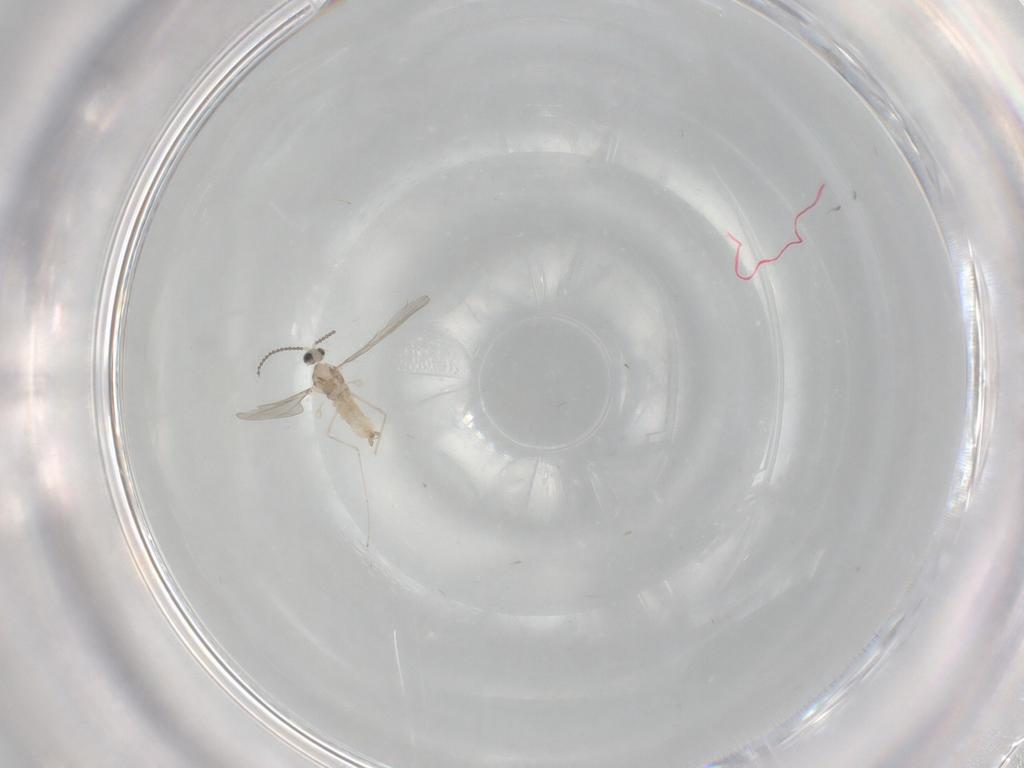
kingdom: Animalia
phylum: Arthropoda
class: Insecta
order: Diptera
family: Cecidomyiidae
